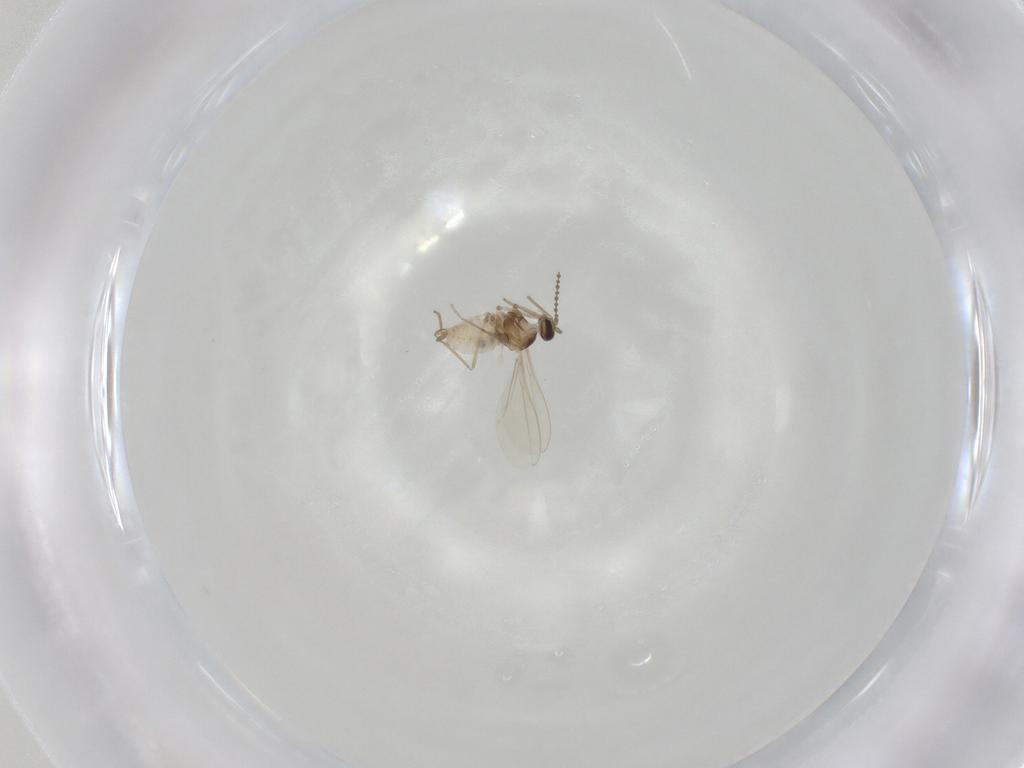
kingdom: Animalia
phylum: Arthropoda
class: Insecta
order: Diptera
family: Cecidomyiidae
